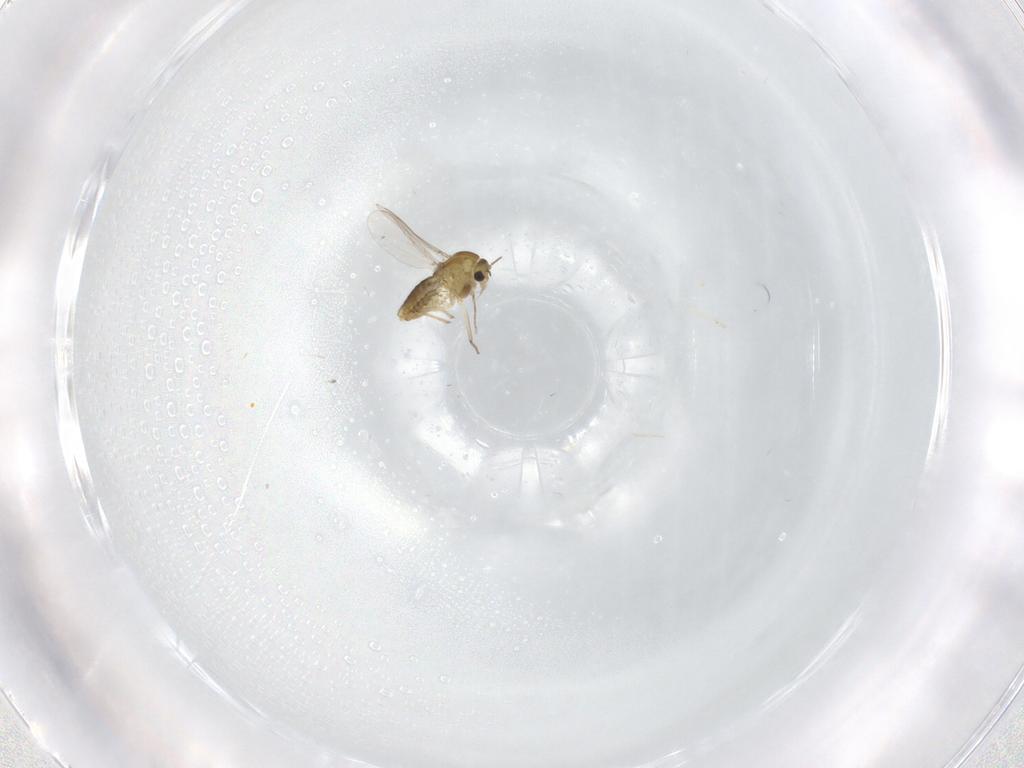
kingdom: Animalia
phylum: Arthropoda
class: Insecta
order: Diptera
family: Chironomidae
